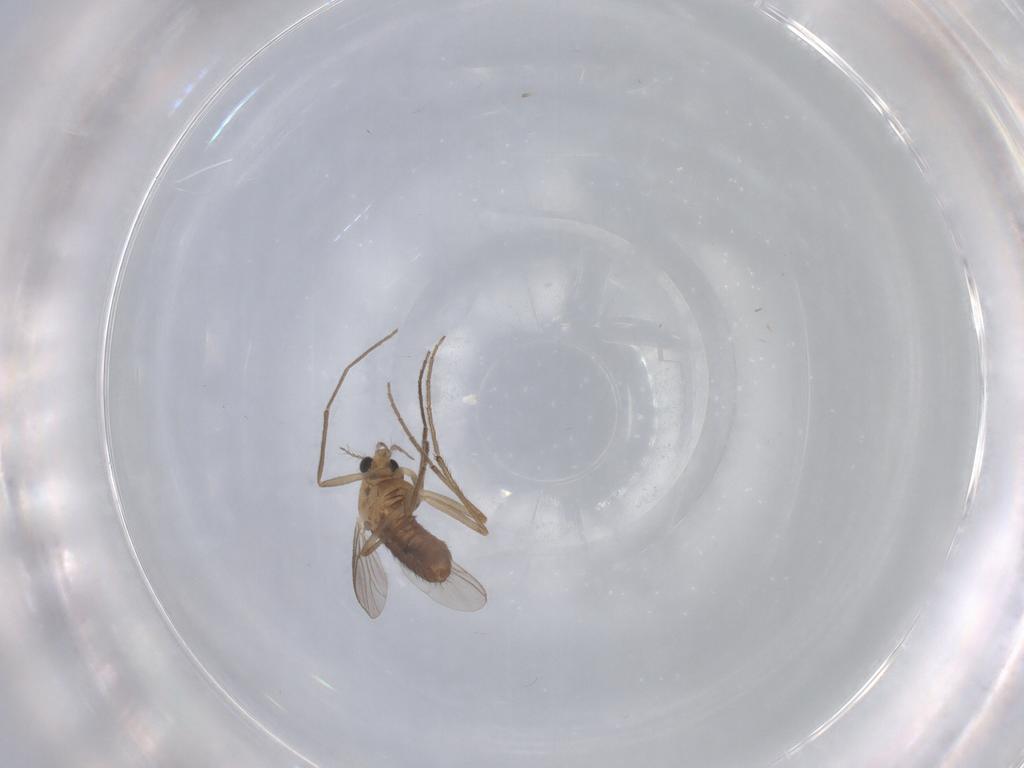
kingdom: Animalia
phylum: Arthropoda
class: Insecta
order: Diptera
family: Chironomidae
